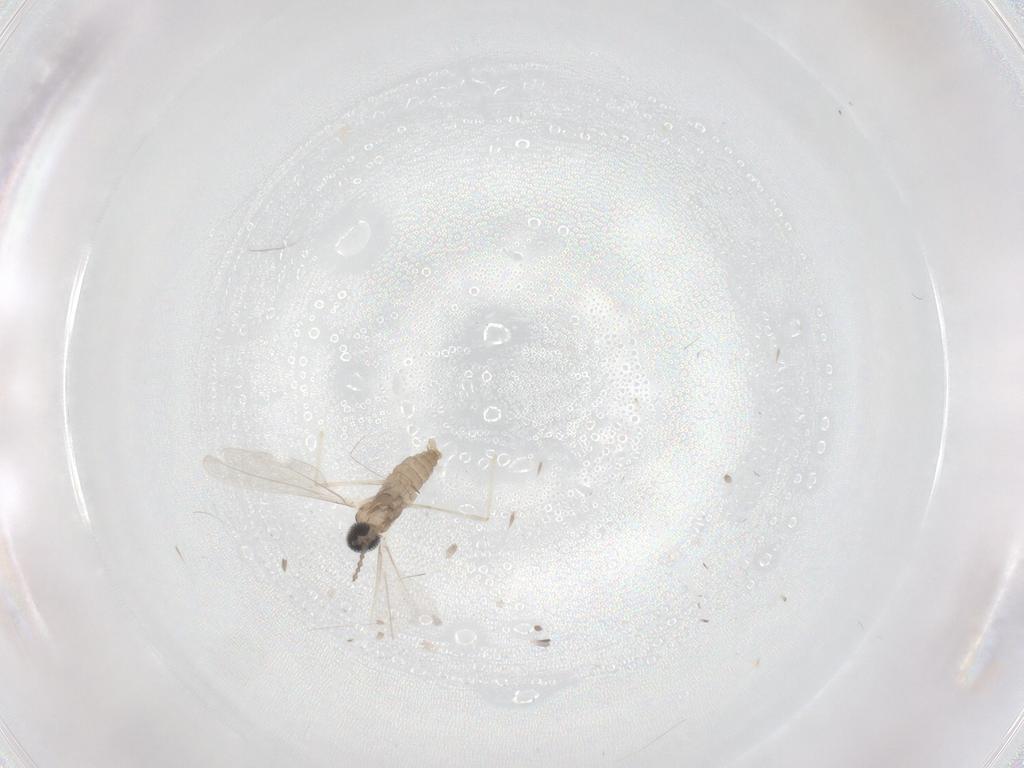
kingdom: Animalia
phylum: Arthropoda
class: Insecta
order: Diptera
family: Cecidomyiidae
